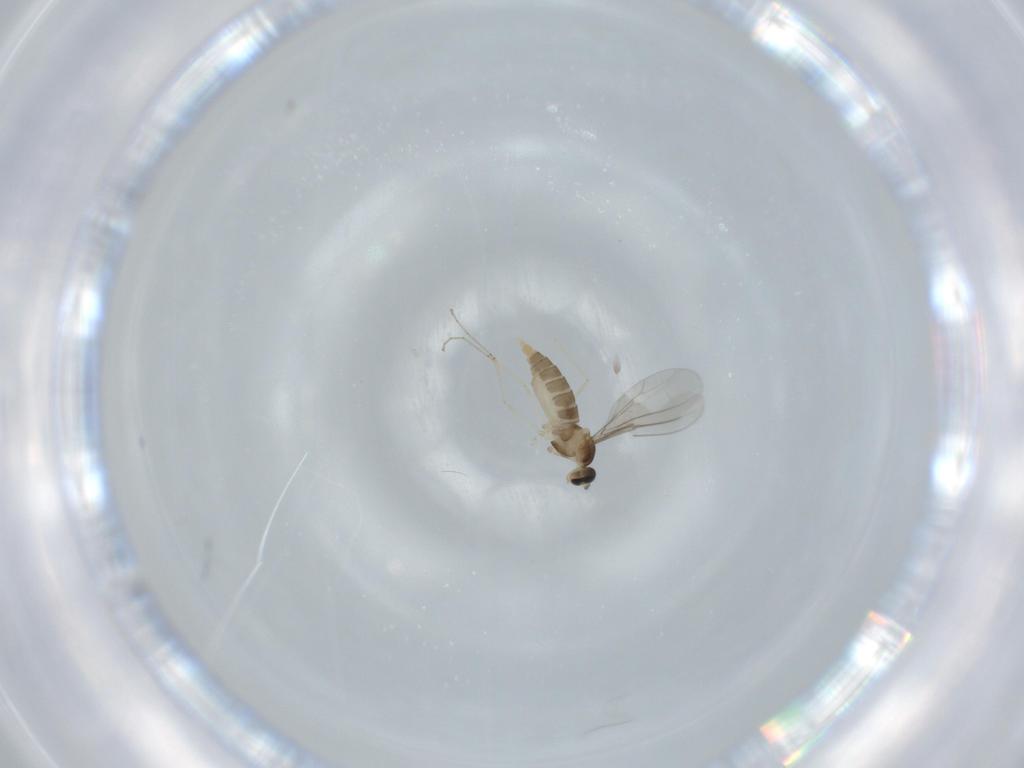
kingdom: Animalia
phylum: Arthropoda
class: Insecta
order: Diptera
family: Cecidomyiidae
